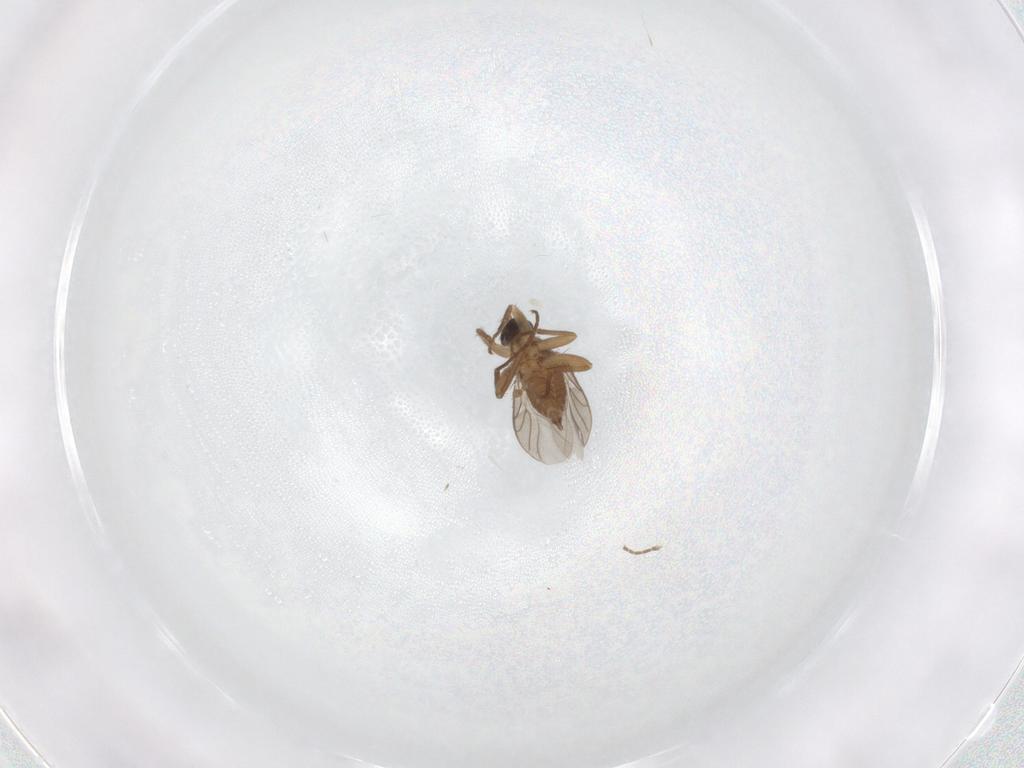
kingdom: Animalia
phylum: Arthropoda
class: Insecta
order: Diptera
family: Hybotidae
